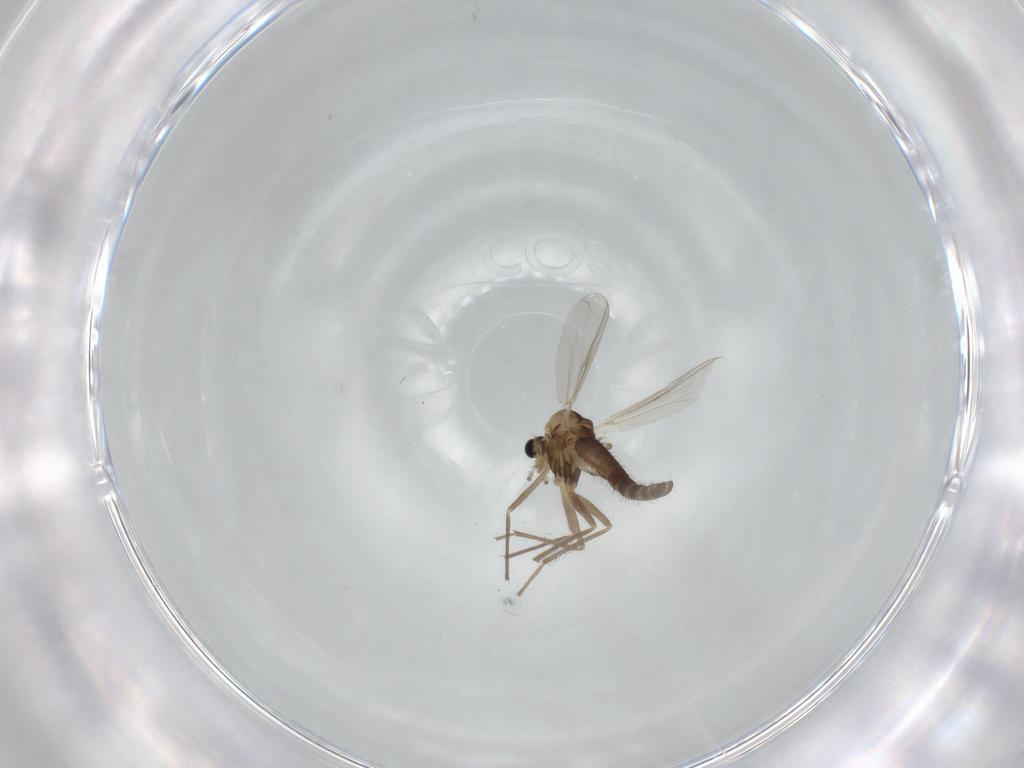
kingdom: Animalia
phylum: Arthropoda
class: Insecta
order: Diptera
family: Chironomidae
